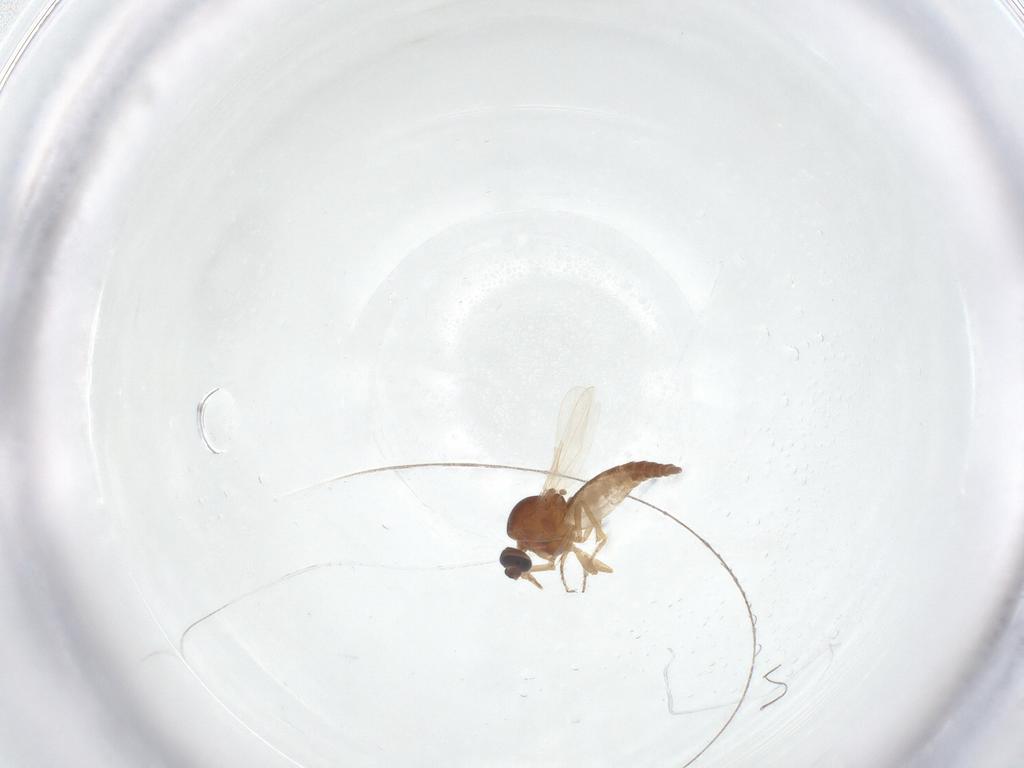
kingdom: Animalia
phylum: Arthropoda
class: Insecta
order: Diptera
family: Ceratopogonidae
